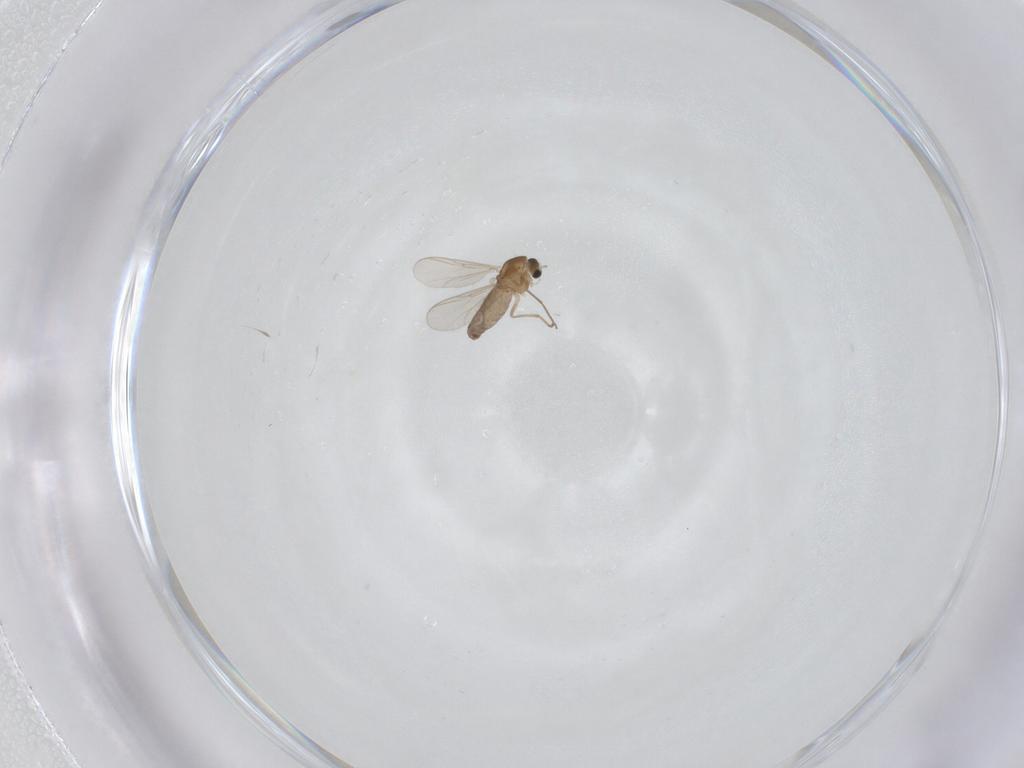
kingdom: Animalia
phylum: Arthropoda
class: Insecta
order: Diptera
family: Chironomidae
